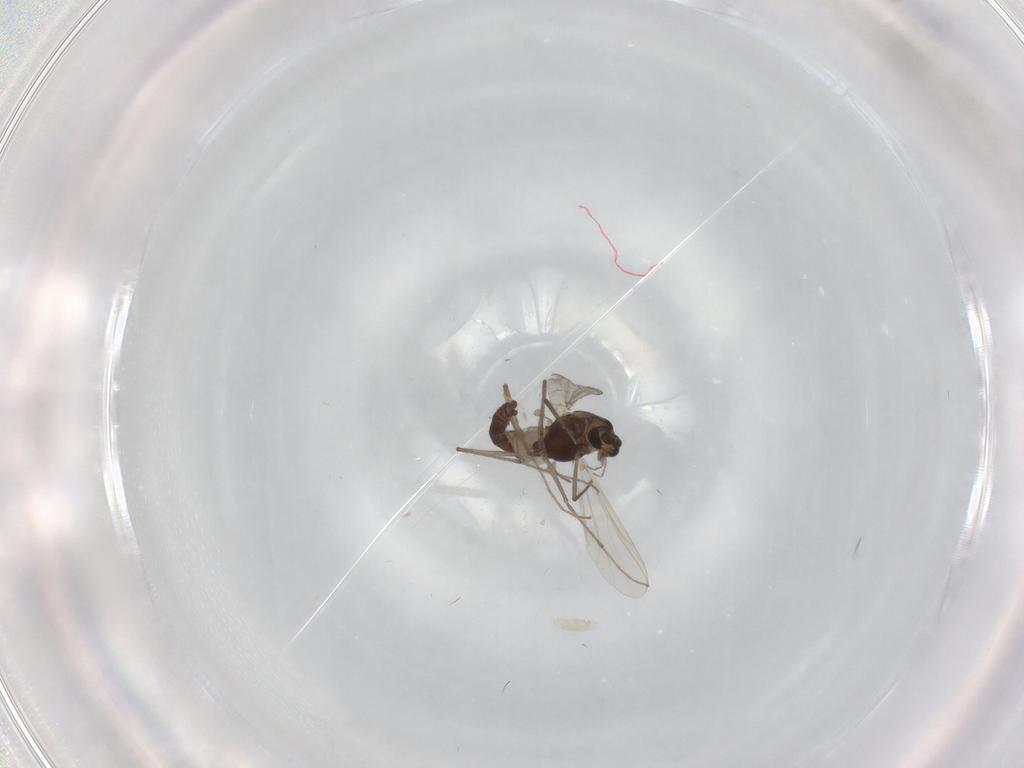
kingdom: Animalia
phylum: Arthropoda
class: Insecta
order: Diptera
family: Chironomidae
